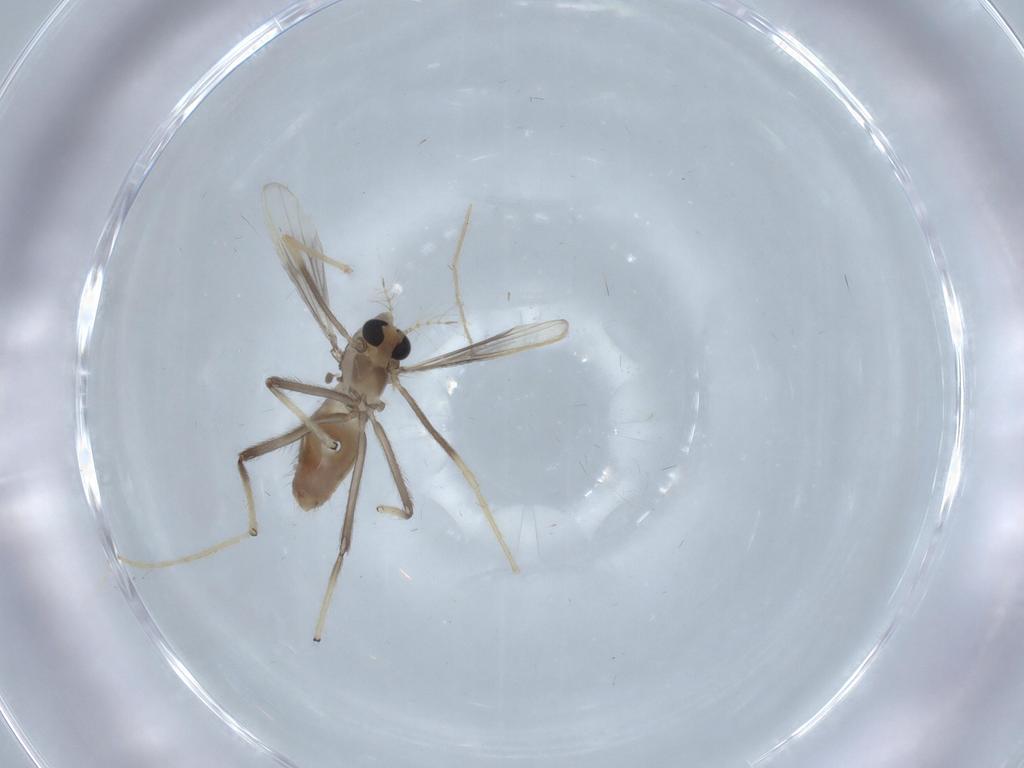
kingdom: Animalia
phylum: Arthropoda
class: Insecta
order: Diptera
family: Chironomidae
